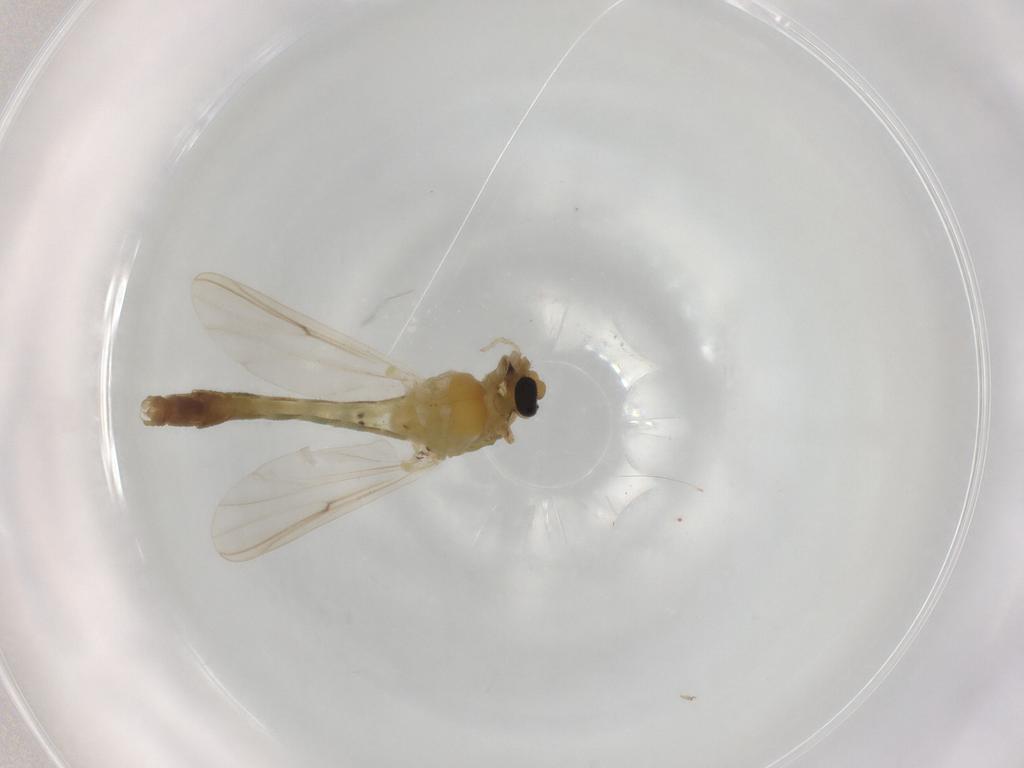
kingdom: Animalia
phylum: Arthropoda
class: Insecta
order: Diptera
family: Chironomidae
